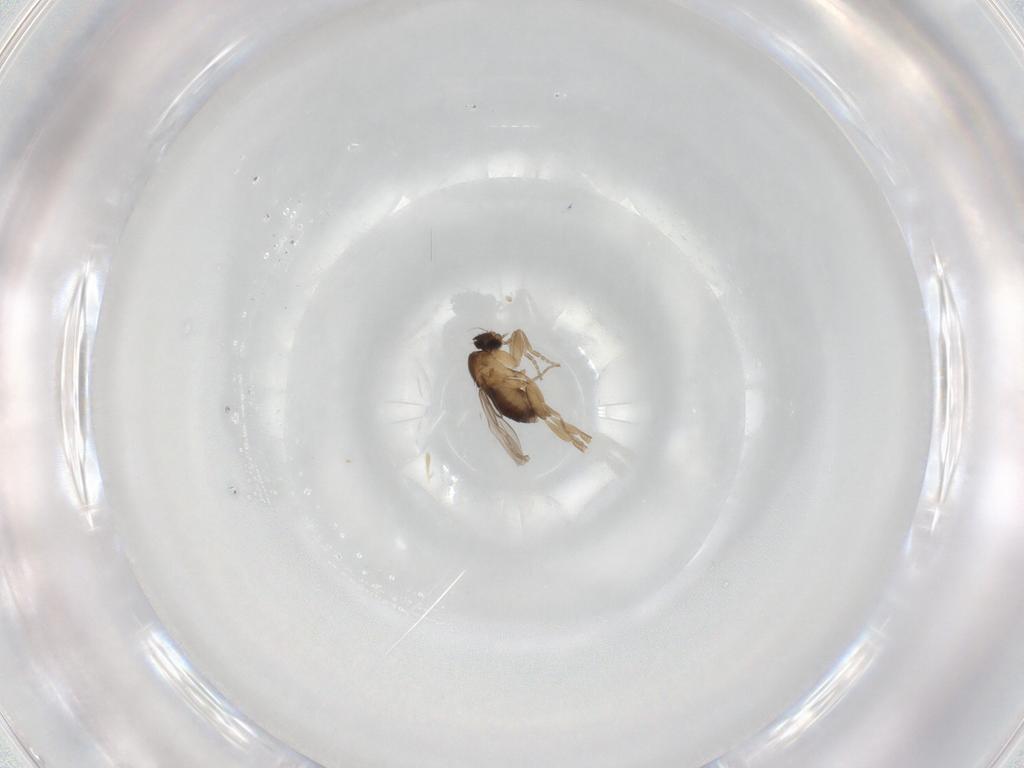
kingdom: Animalia
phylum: Arthropoda
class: Insecta
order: Diptera
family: Phoridae
